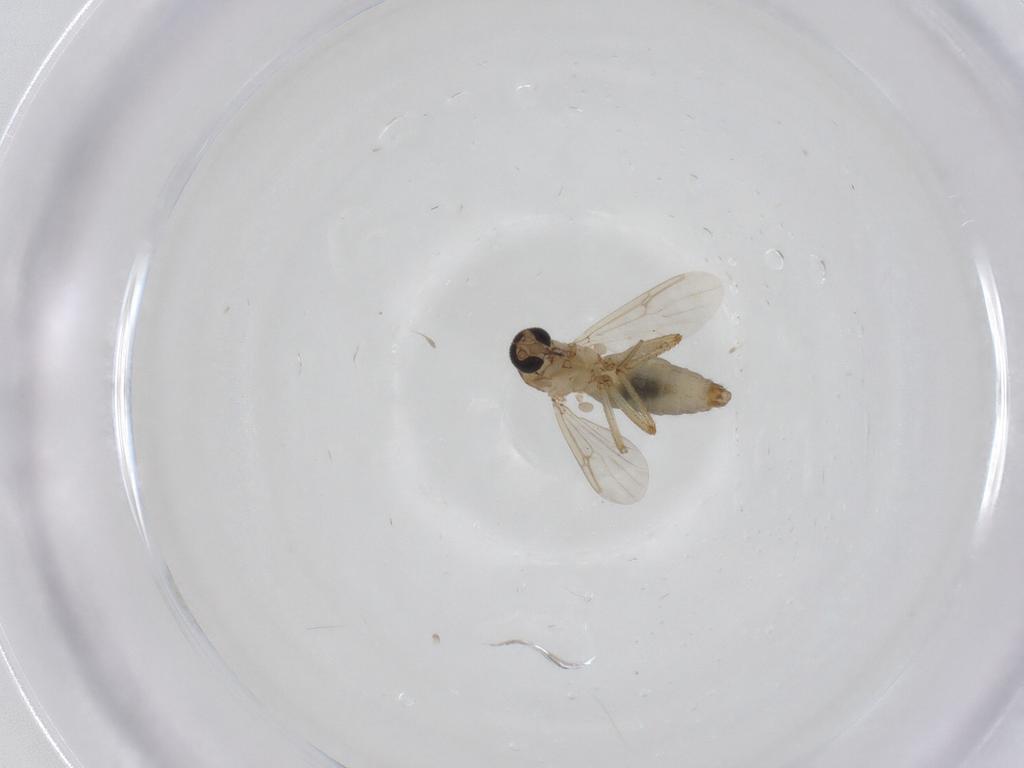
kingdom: Animalia
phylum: Arthropoda
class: Insecta
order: Diptera
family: Ceratopogonidae
